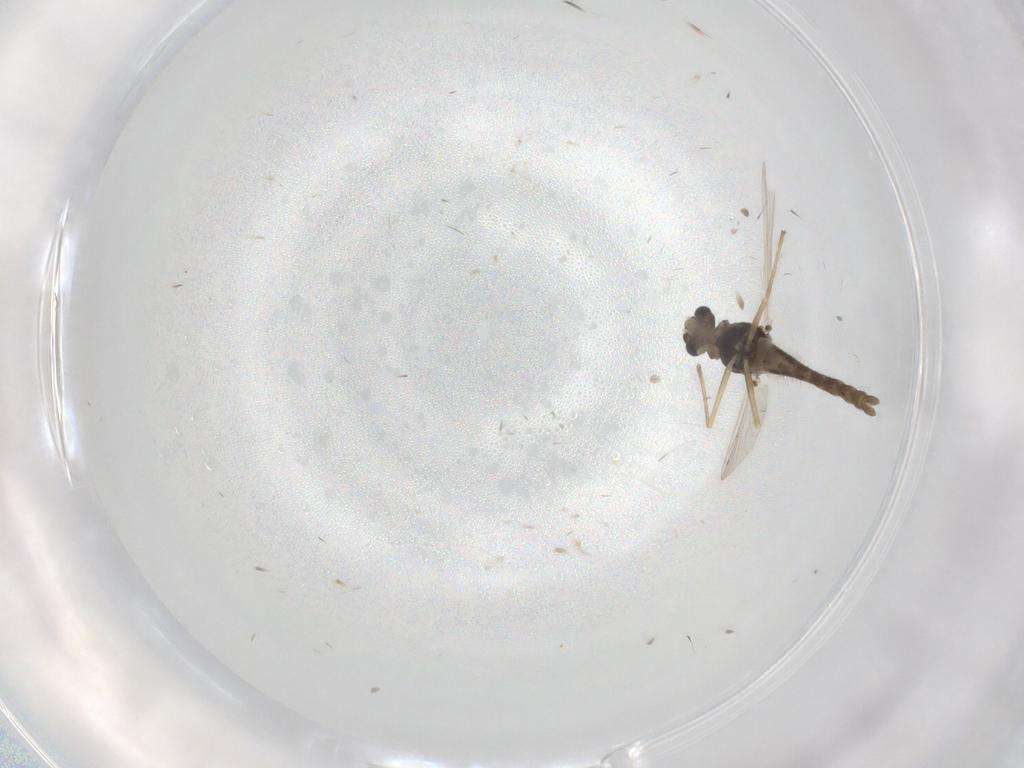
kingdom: Animalia
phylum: Arthropoda
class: Insecta
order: Diptera
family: Chironomidae
